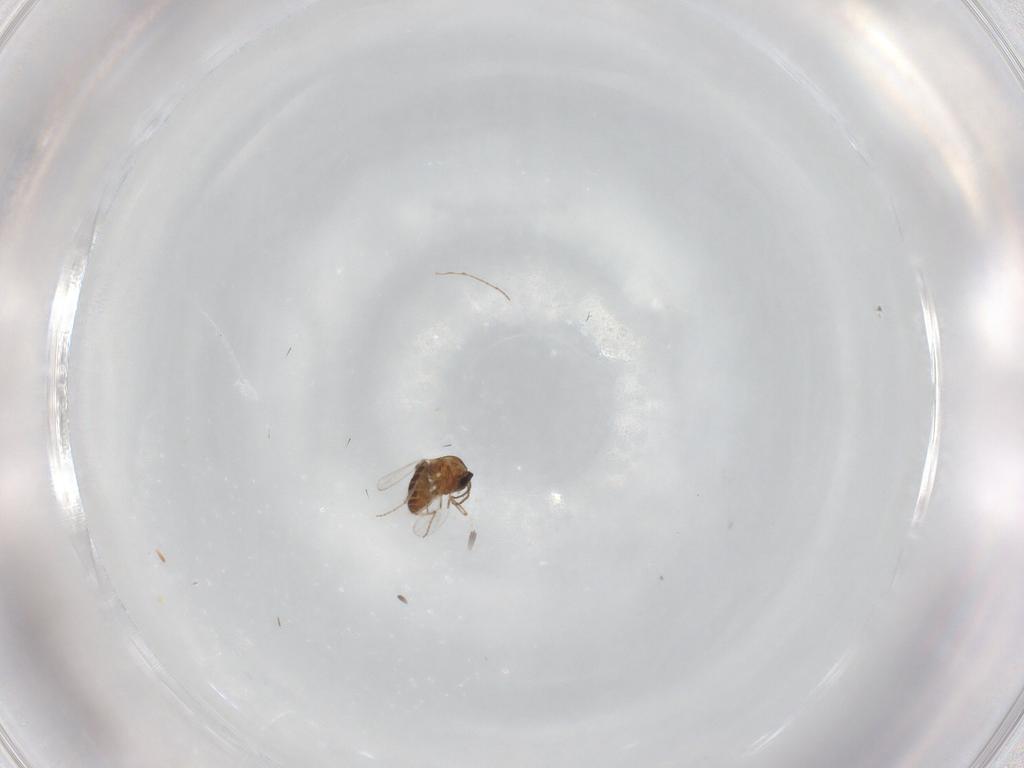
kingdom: Animalia
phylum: Arthropoda
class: Insecta
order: Diptera
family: Ceratopogonidae
